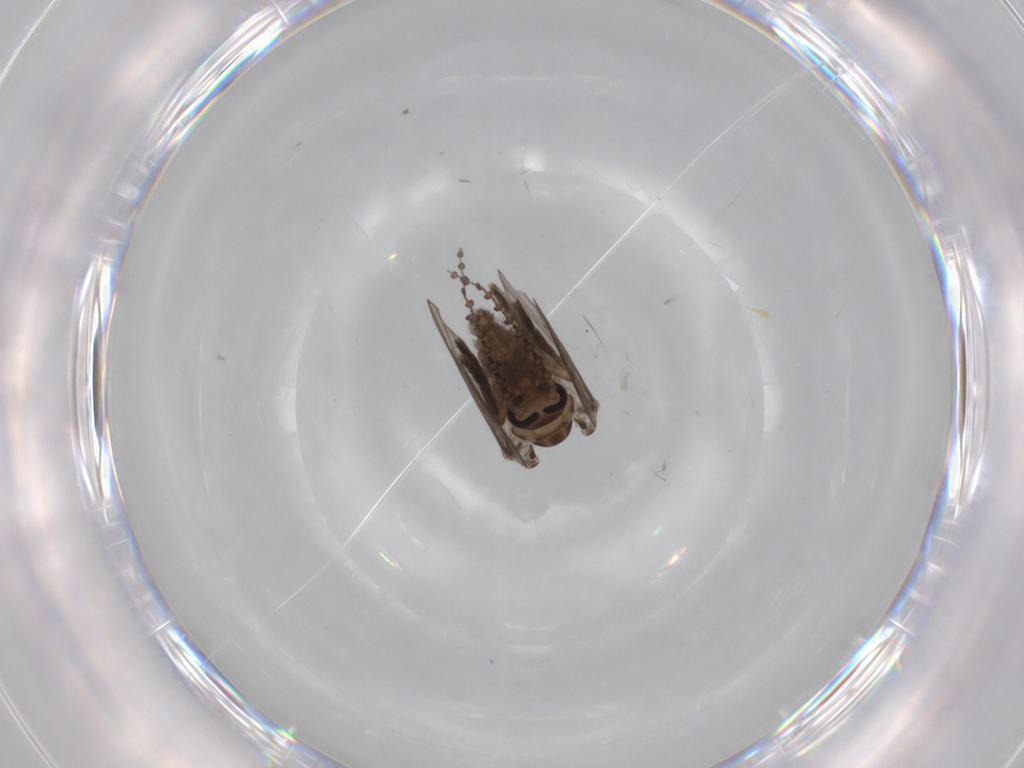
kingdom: Animalia
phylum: Arthropoda
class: Insecta
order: Diptera
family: Psychodidae
